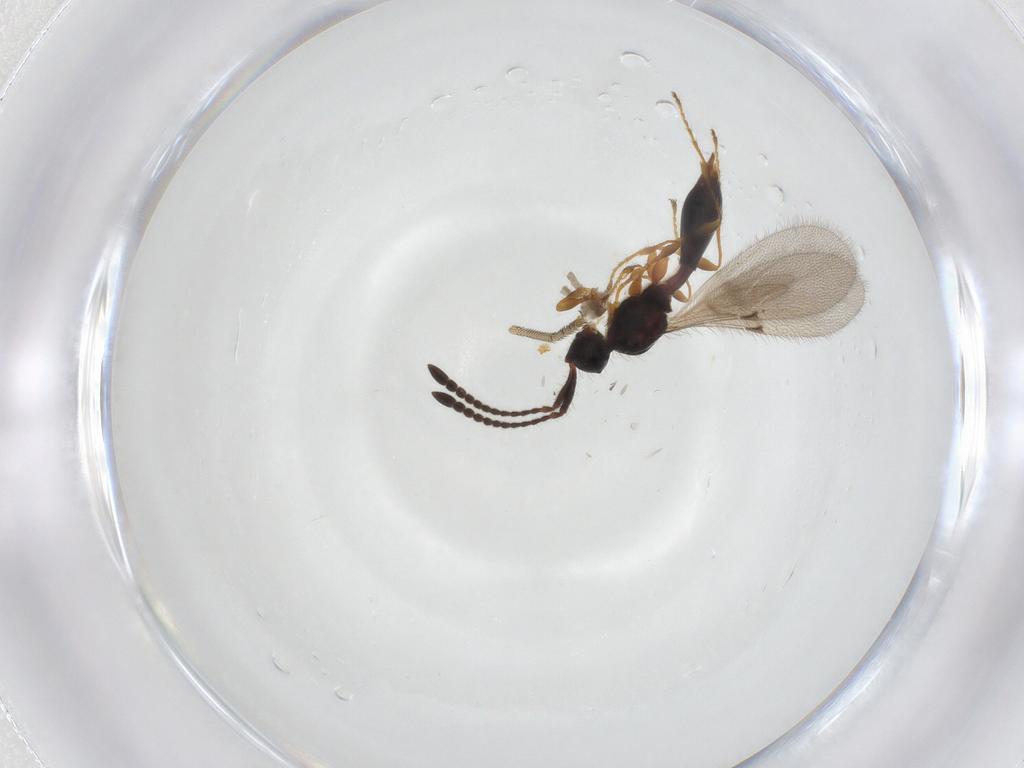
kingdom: Animalia
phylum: Arthropoda
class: Insecta
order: Hymenoptera
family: Diapriidae
